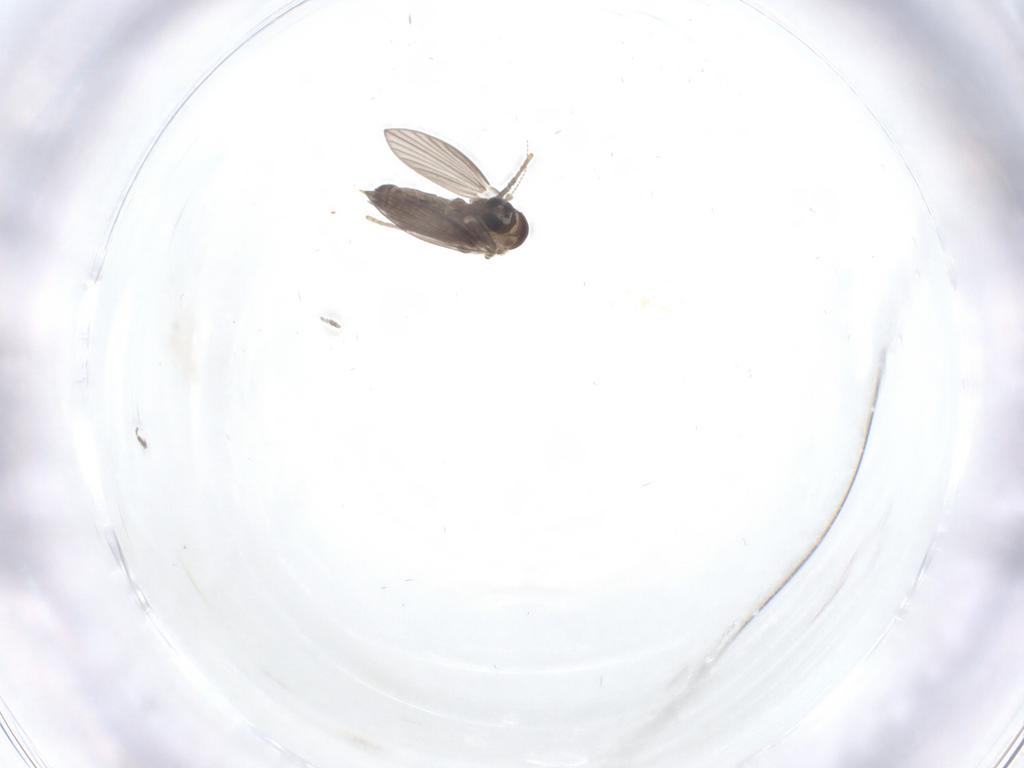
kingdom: Animalia
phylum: Arthropoda
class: Insecta
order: Diptera
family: Psychodidae
